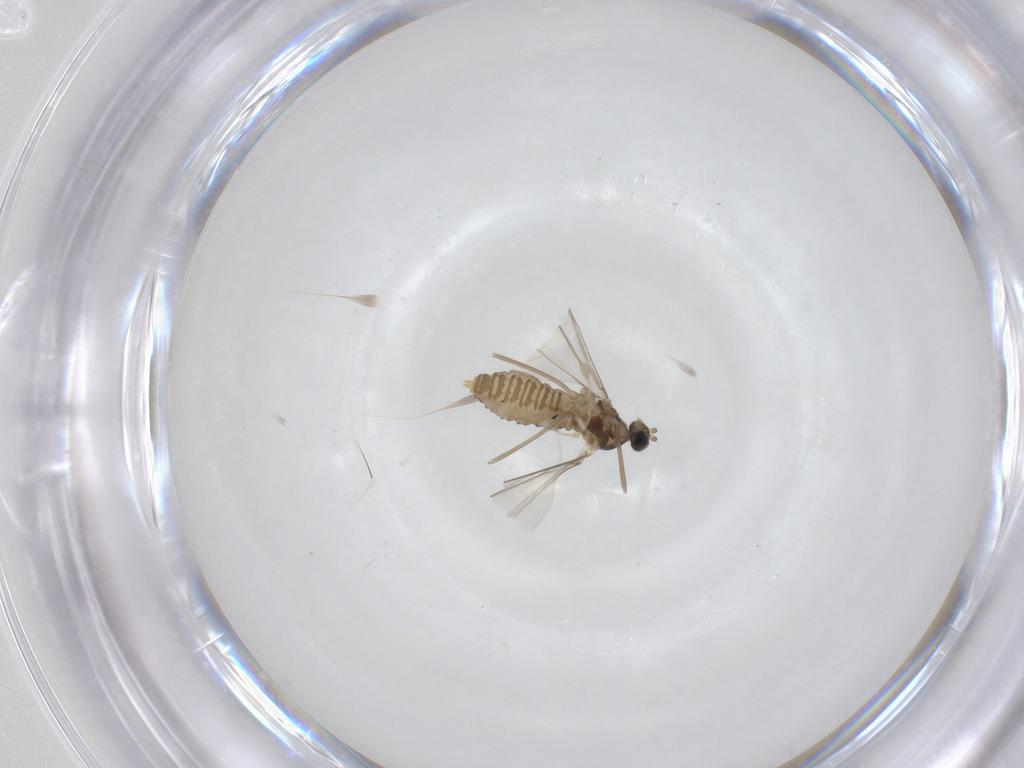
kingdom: Animalia
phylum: Arthropoda
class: Insecta
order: Diptera
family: Cecidomyiidae
